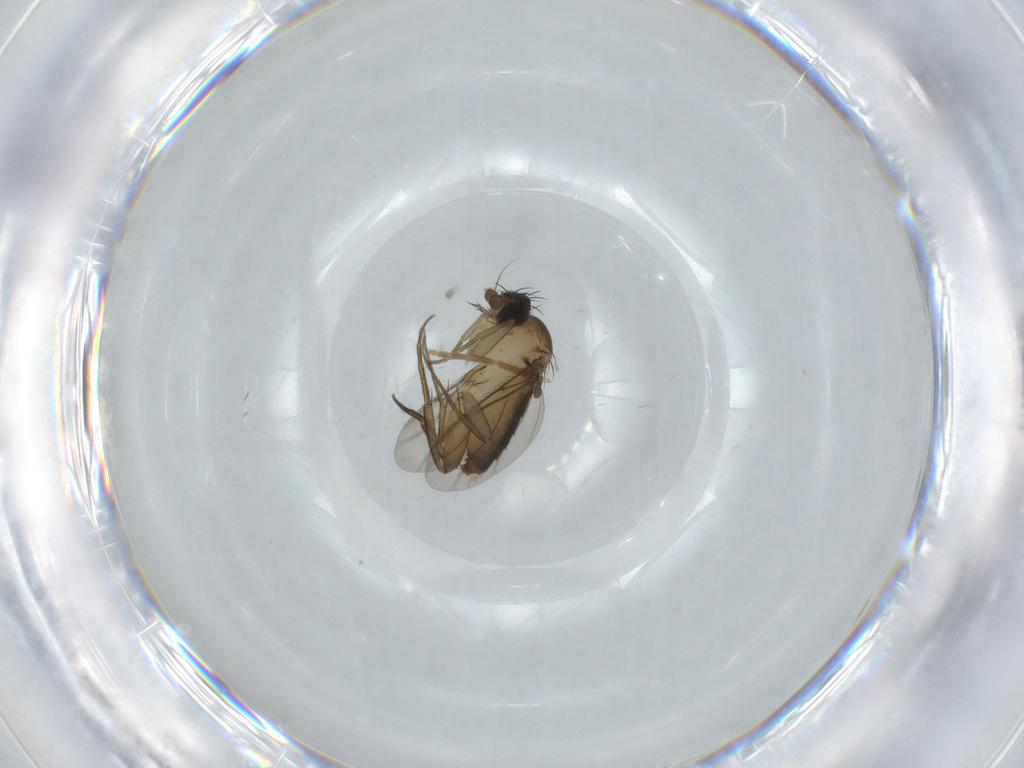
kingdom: Animalia
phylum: Arthropoda
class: Insecta
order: Diptera
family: Phoridae
